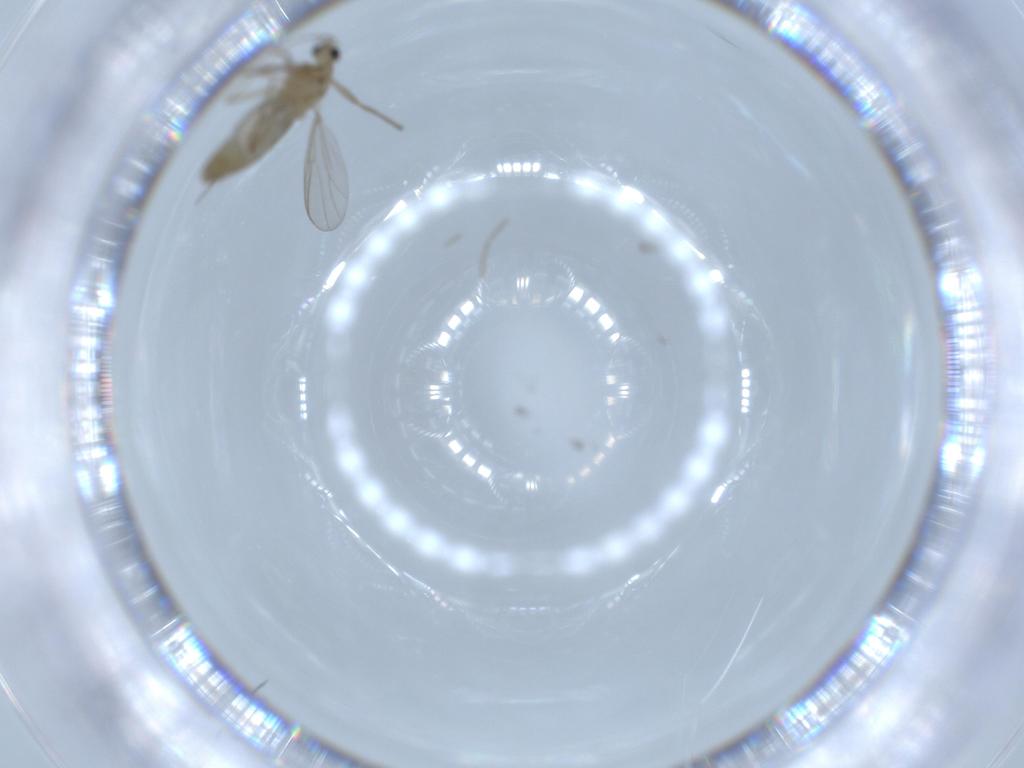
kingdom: Animalia
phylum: Arthropoda
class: Insecta
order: Diptera
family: Chironomidae
